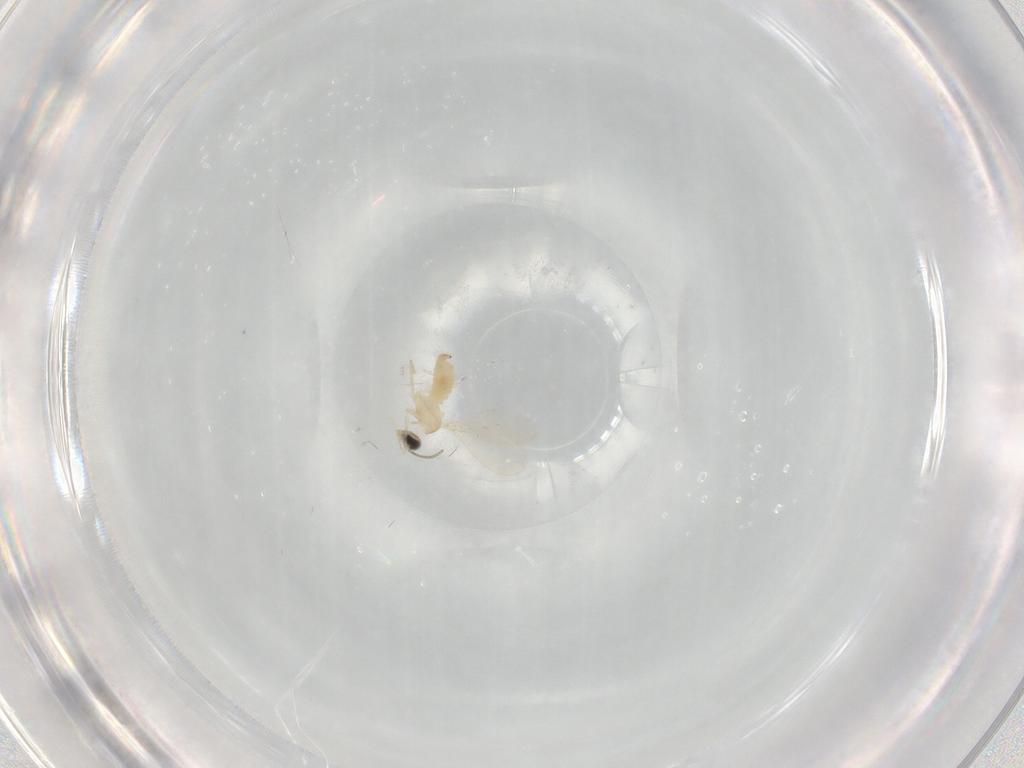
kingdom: Animalia
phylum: Arthropoda
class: Insecta
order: Diptera
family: Cecidomyiidae
